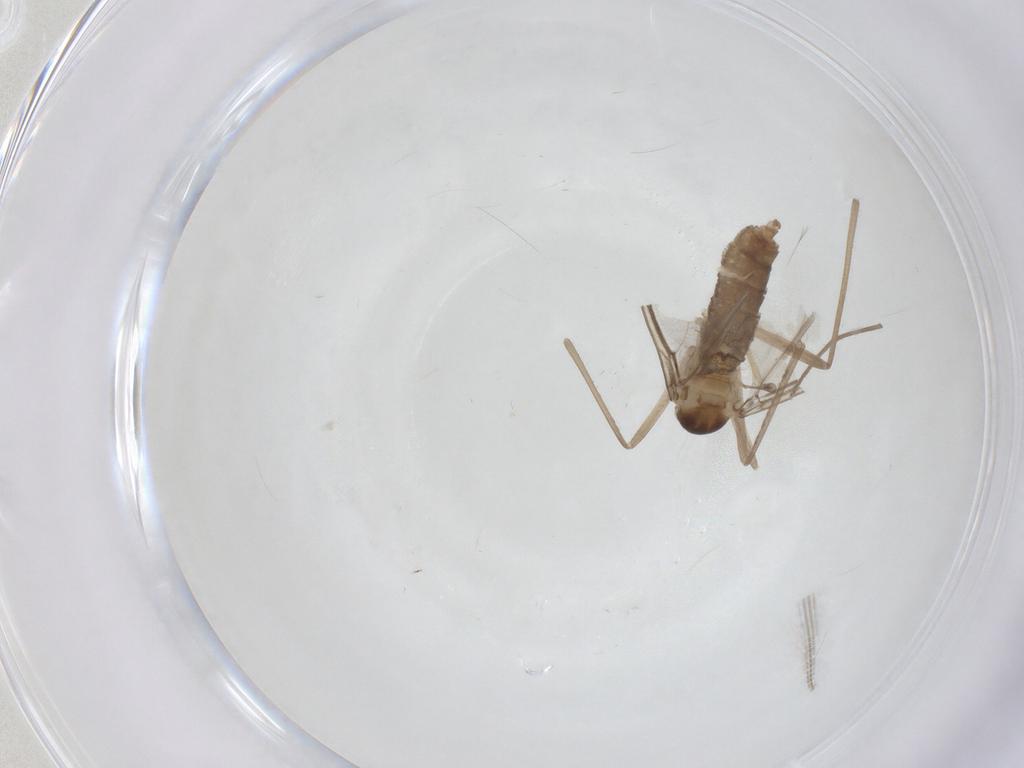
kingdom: Animalia
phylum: Arthropoda
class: Insecta
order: Diptera
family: Cecidomyiidae
